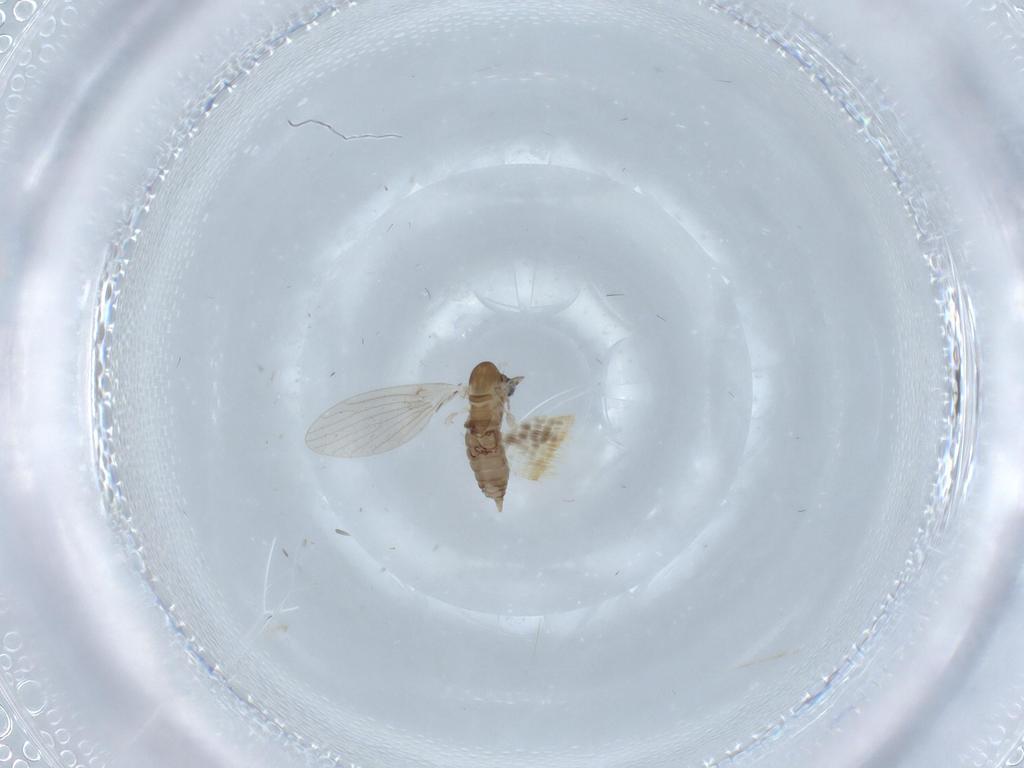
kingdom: Animalia
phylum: Arthropoda
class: Insecta
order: Diptera
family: Psychodidae
